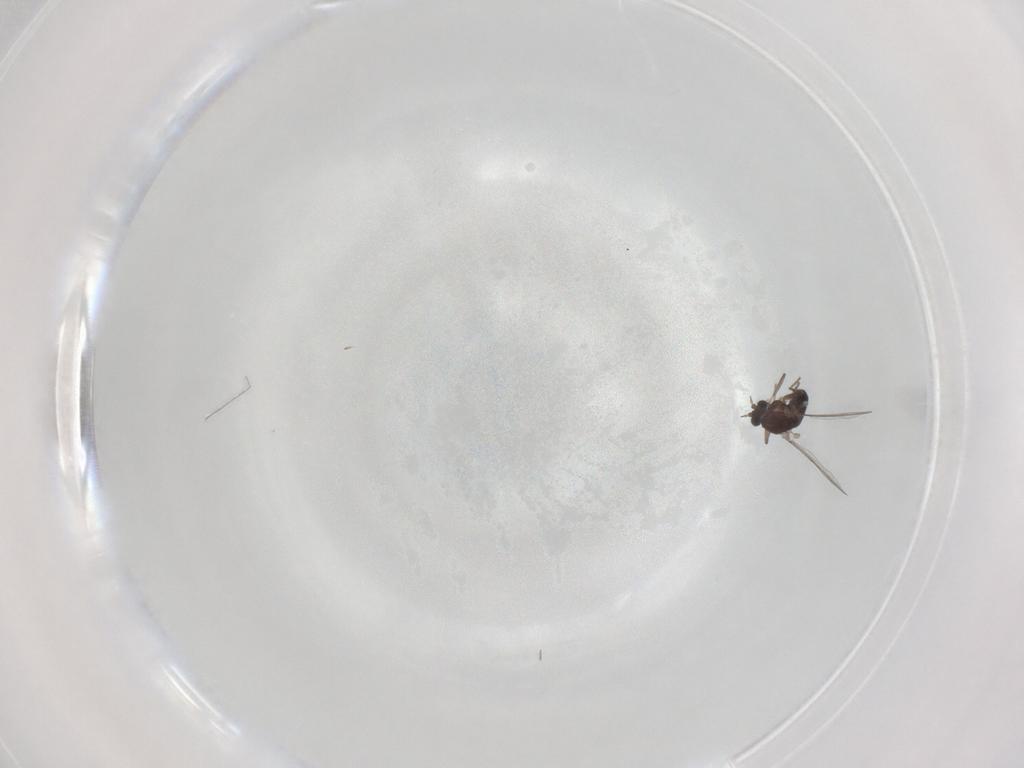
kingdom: Animalia
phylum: Arthropoda
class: Insecta
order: Diptera
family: Chironomidae
